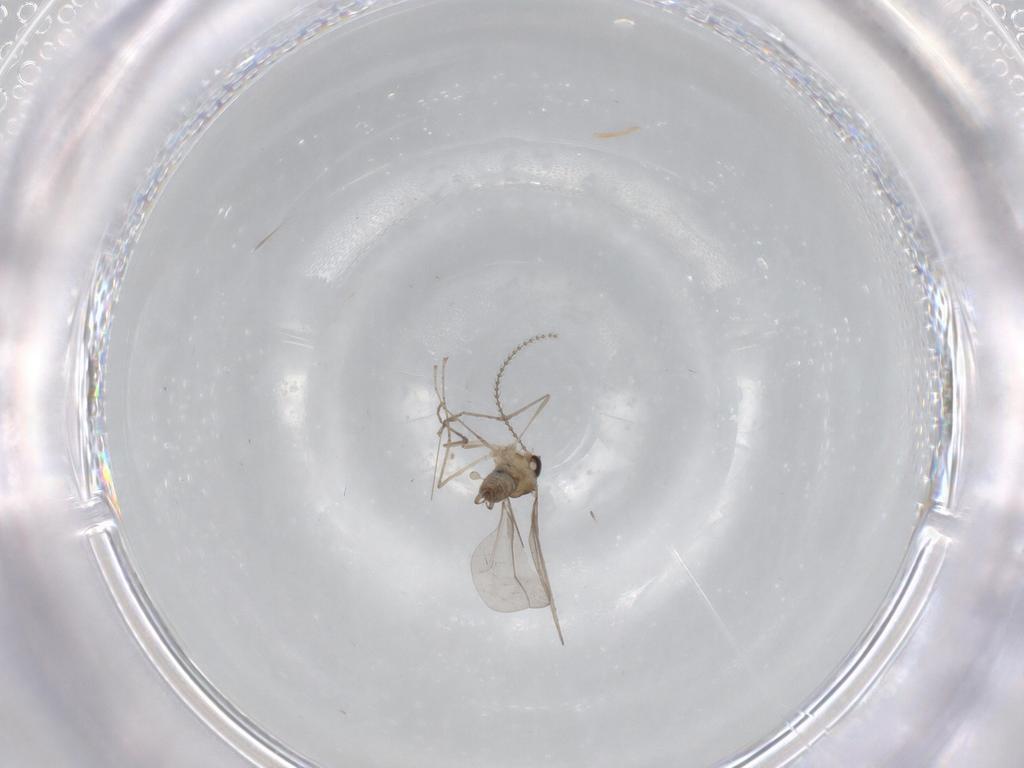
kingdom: Animalia
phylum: Arthropoda
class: Insecta
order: Diptera
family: Cecidomyiidae
